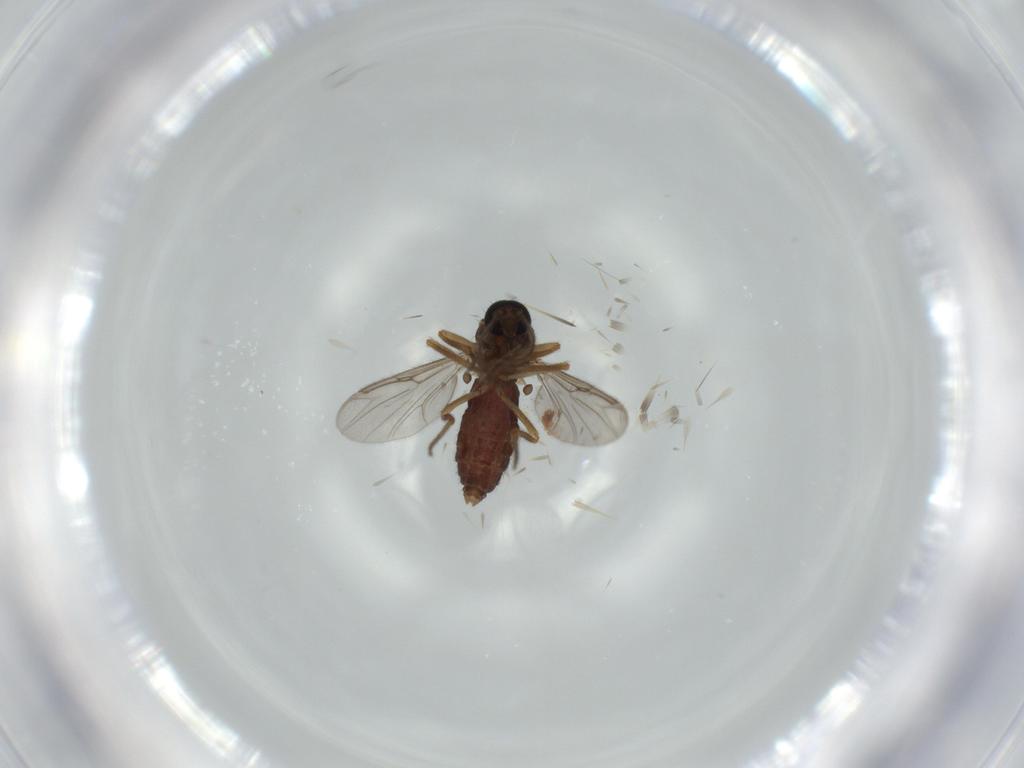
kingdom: Animalia
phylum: Arthropoda
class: Insecta
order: Diptera
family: Ceratopogonidae
